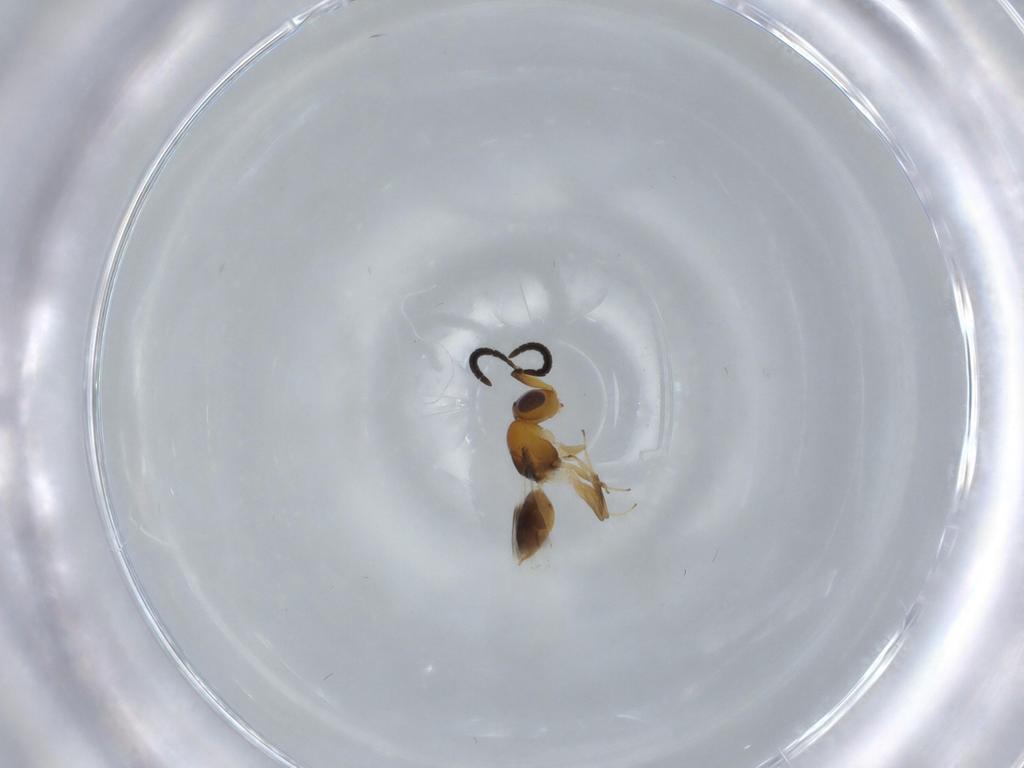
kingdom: Animalia
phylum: Arthropoda
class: Insecta
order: Hymenoptera
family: Megaspilidae
